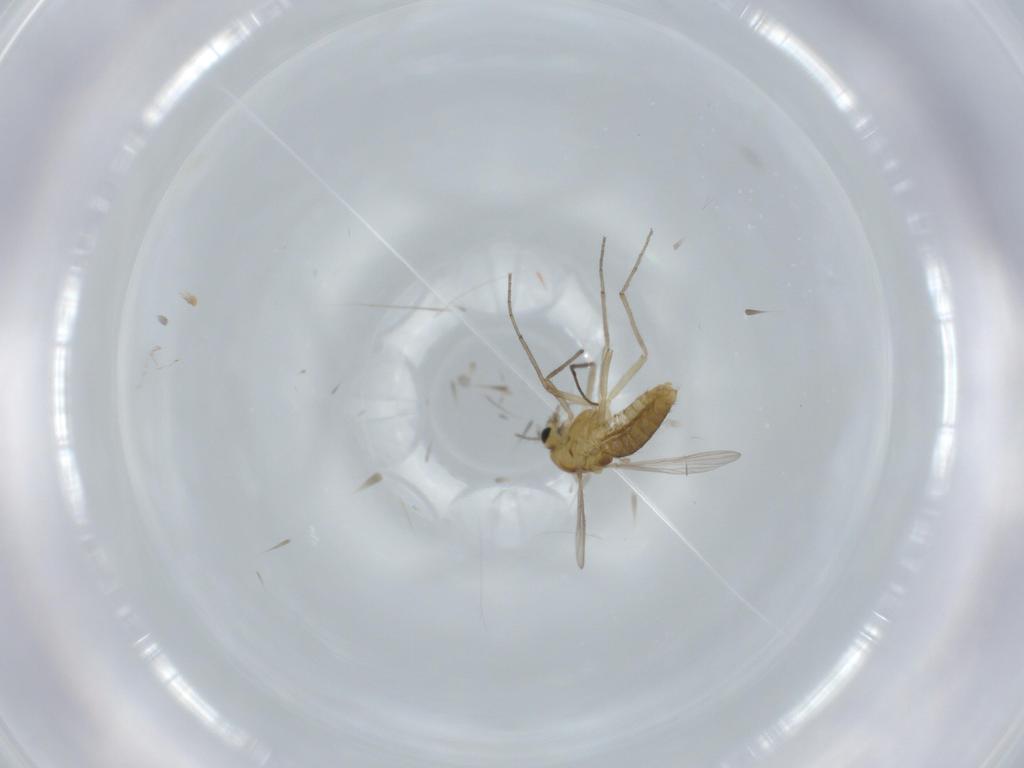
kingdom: Animalia
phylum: Arthropoda
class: Insecta
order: Diptera
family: Chironomidae
